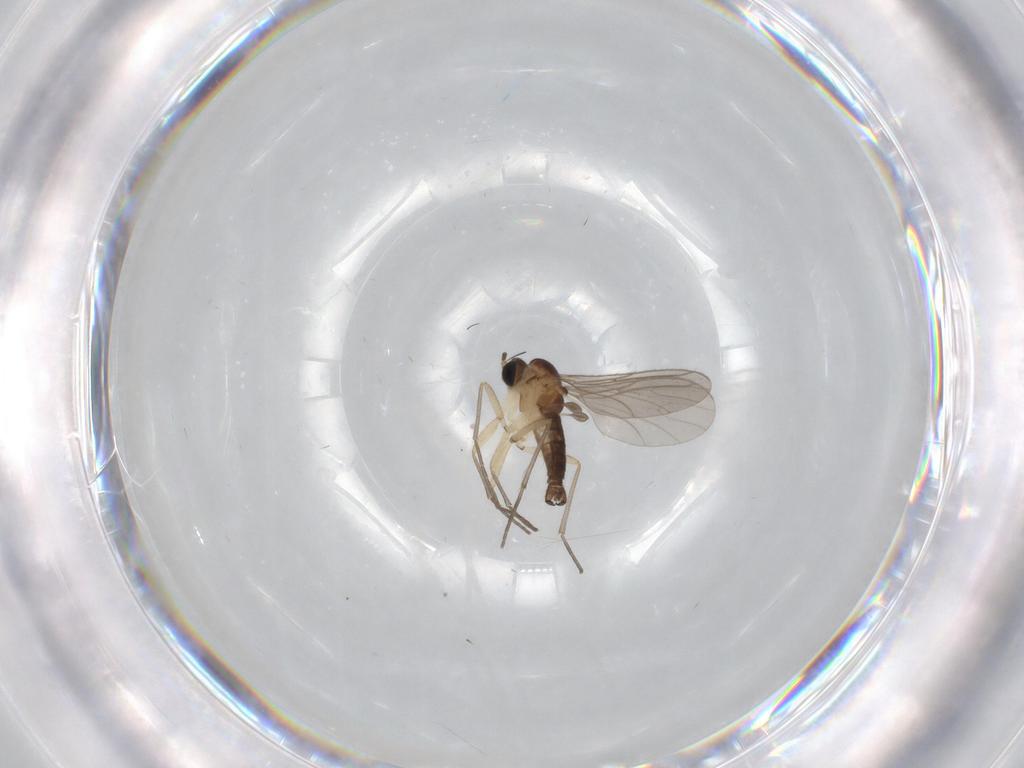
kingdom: Animalia
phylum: Arthropoda
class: Insecta
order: Diptera
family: Sciaridae
